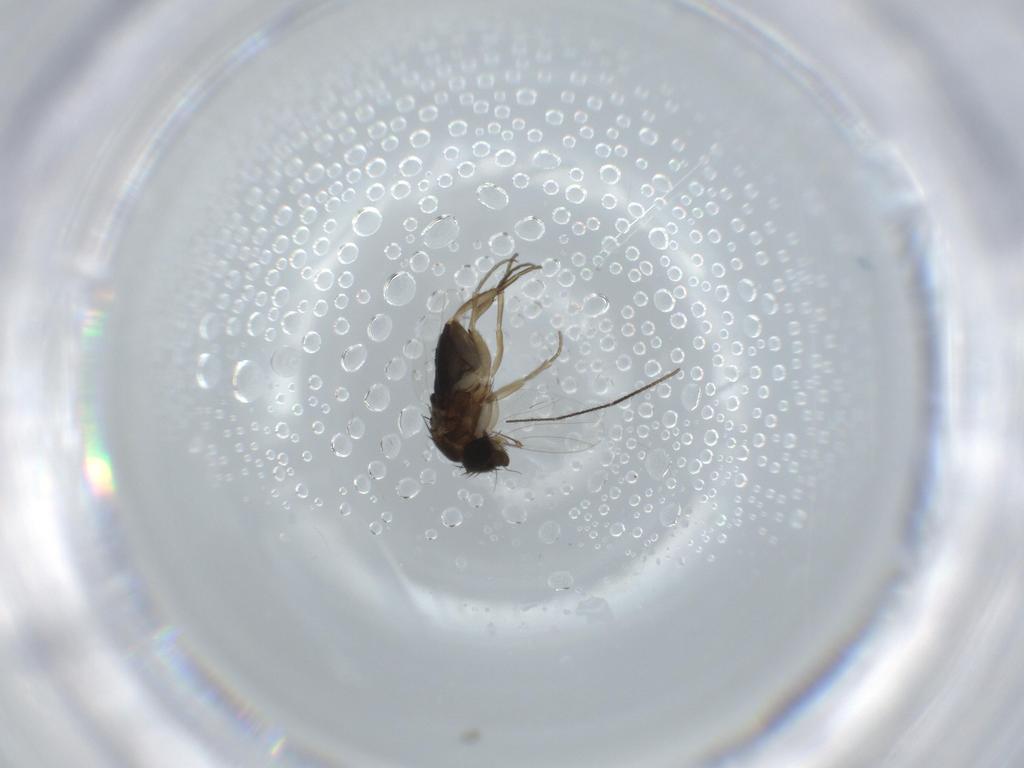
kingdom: Animalia
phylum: Arthropoda
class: Insecta
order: Diptera
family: Phoridae
